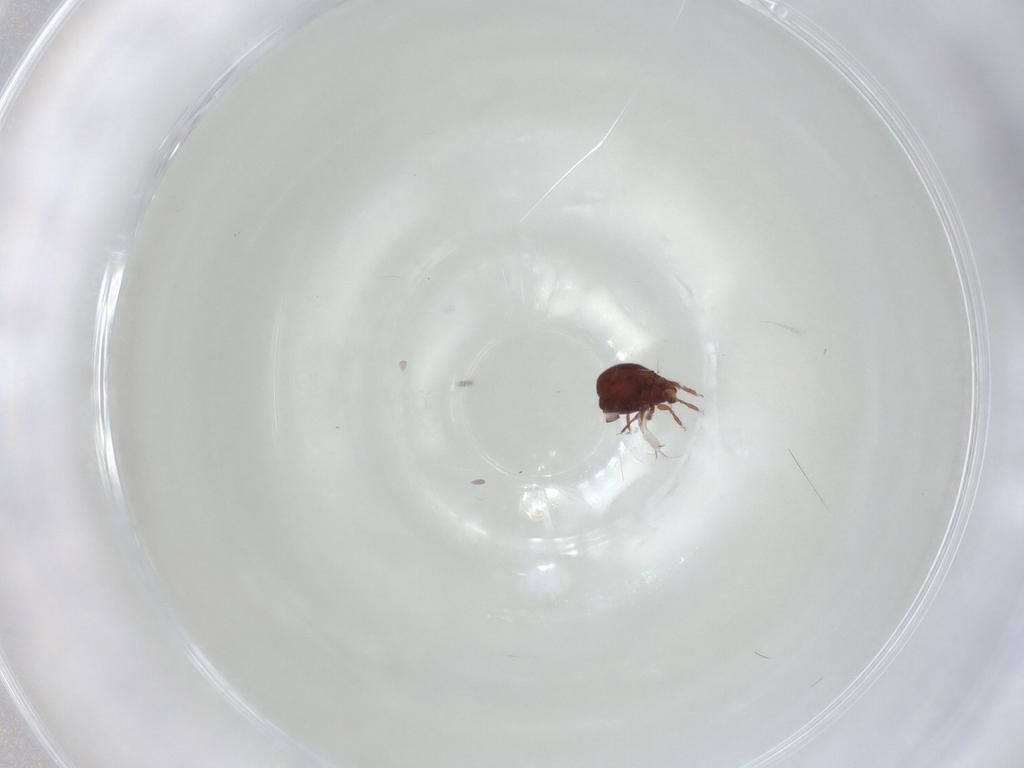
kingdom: Animalia
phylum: Arthropoda
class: Arachnida
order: Sarcoptiformes
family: Humerobatidae
